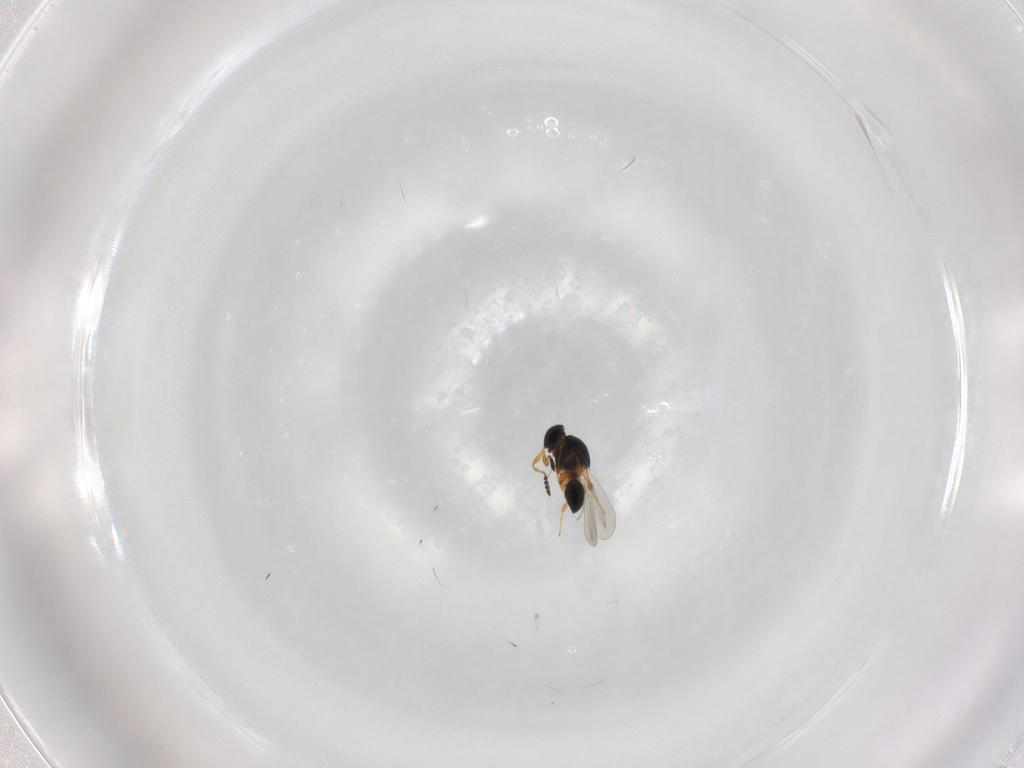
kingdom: Animalia
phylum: Arthropoda
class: Insecta
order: Hymenoptera
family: Platygastridae
